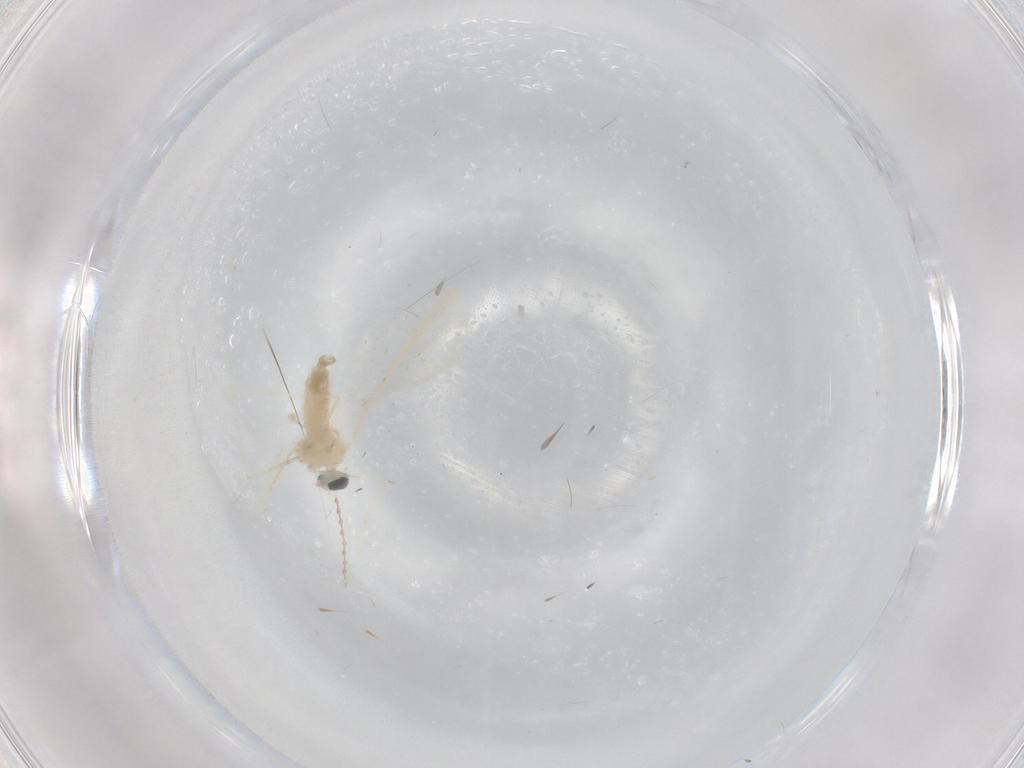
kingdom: Animalia
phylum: Arthropoda
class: Insecta
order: Diptera
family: Cecidomyiidae
